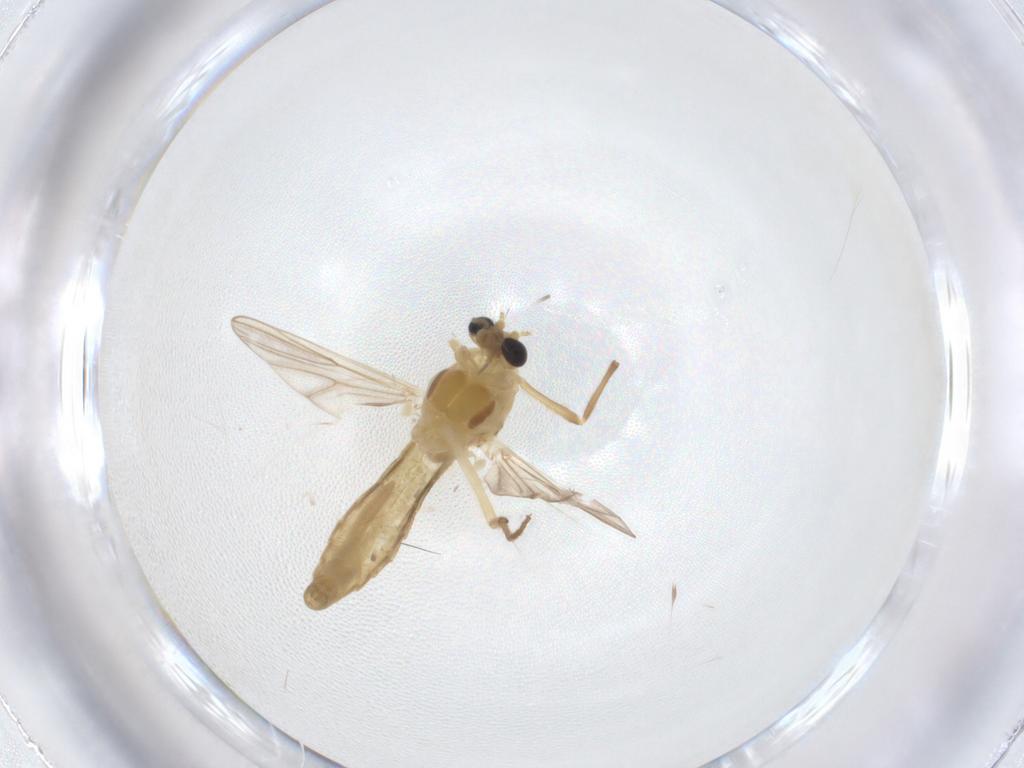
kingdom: Animalia
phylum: Arthropoda
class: Insecta
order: Diptera
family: Chironomidae
